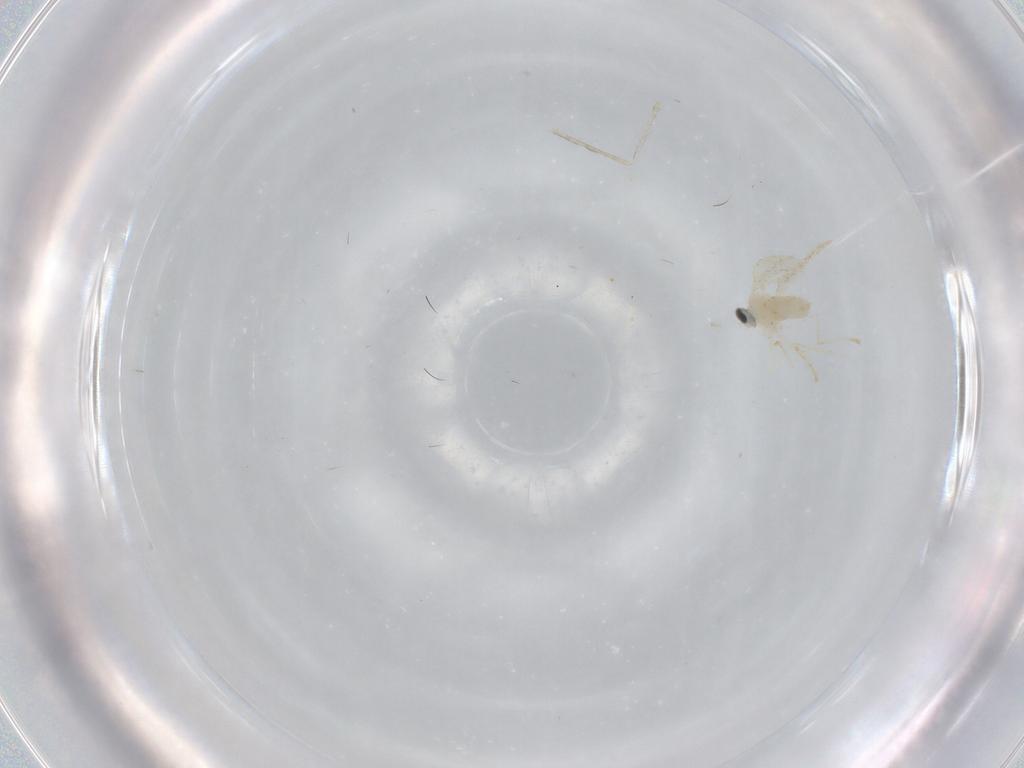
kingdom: Animalia
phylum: Arthropoda
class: Insecta
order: Diptera
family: Cecidomyiidae
